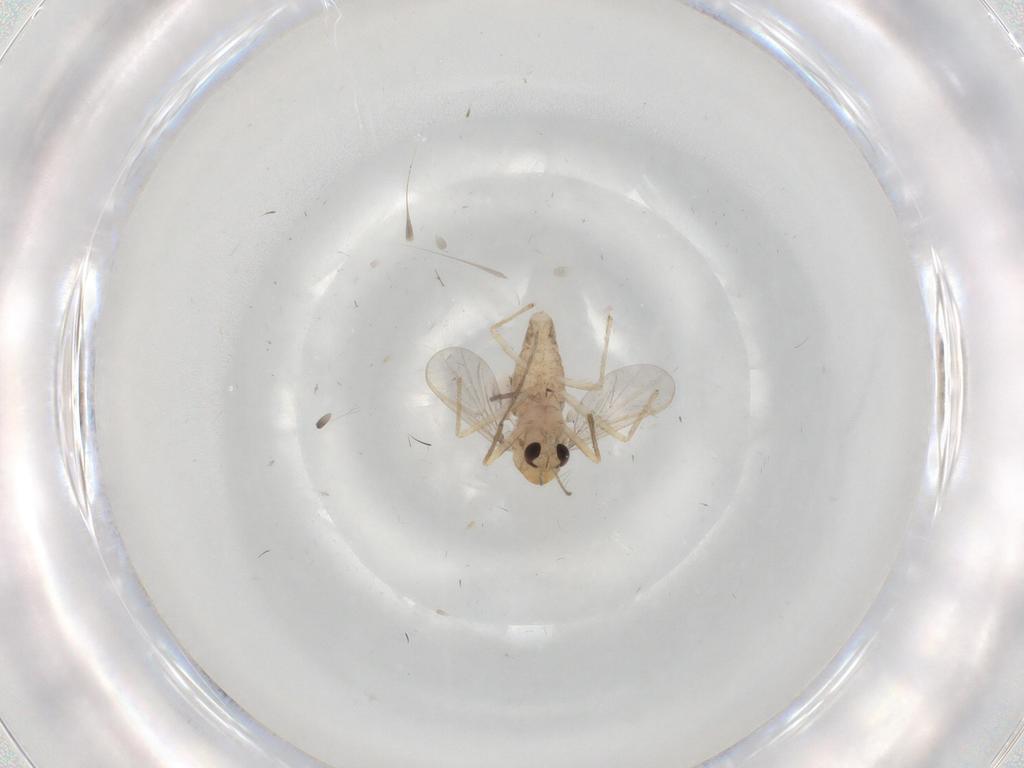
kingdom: Animalia
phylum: Arthropoda
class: Insecta
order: Diptera
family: Chironomidae
